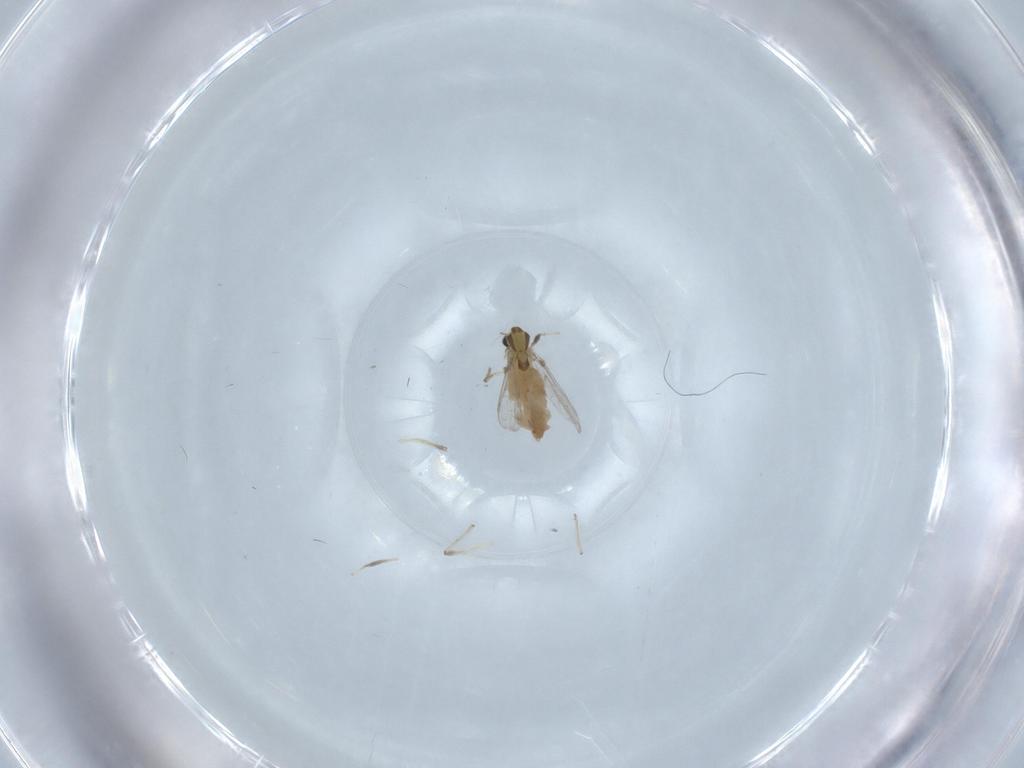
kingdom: Animalia
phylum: Arthropoda
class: Insecta
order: Diptera
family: Chironomidae
